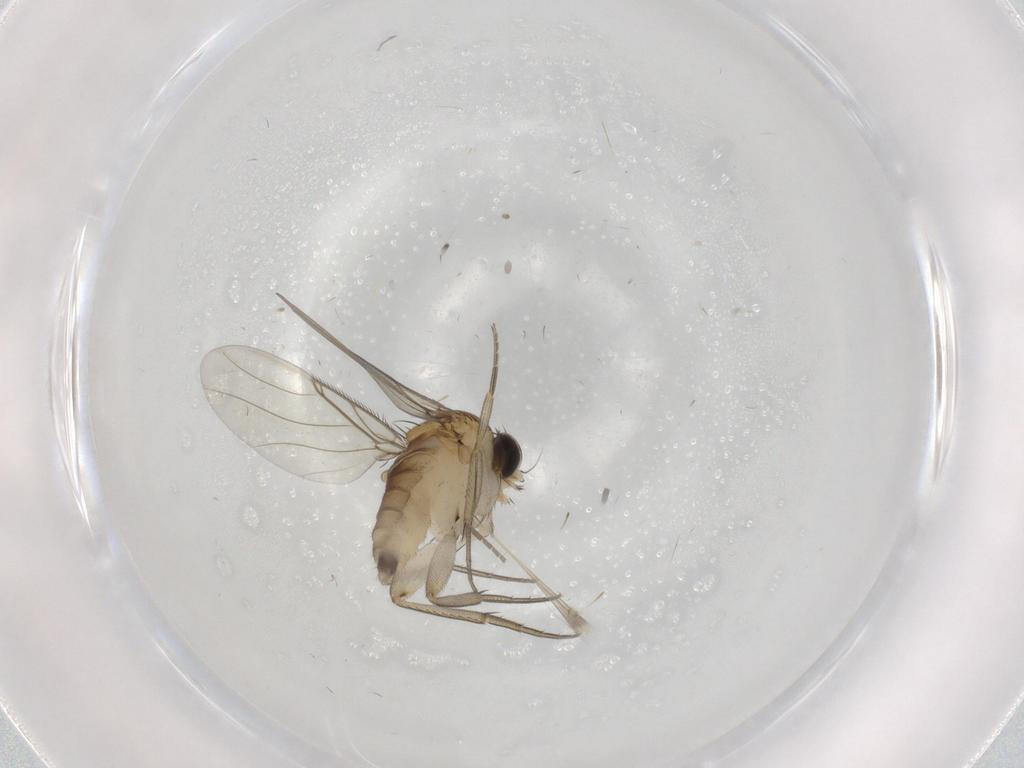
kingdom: Animalia
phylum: Arthropoda
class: Insecta
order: Diptera
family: Phoridae
